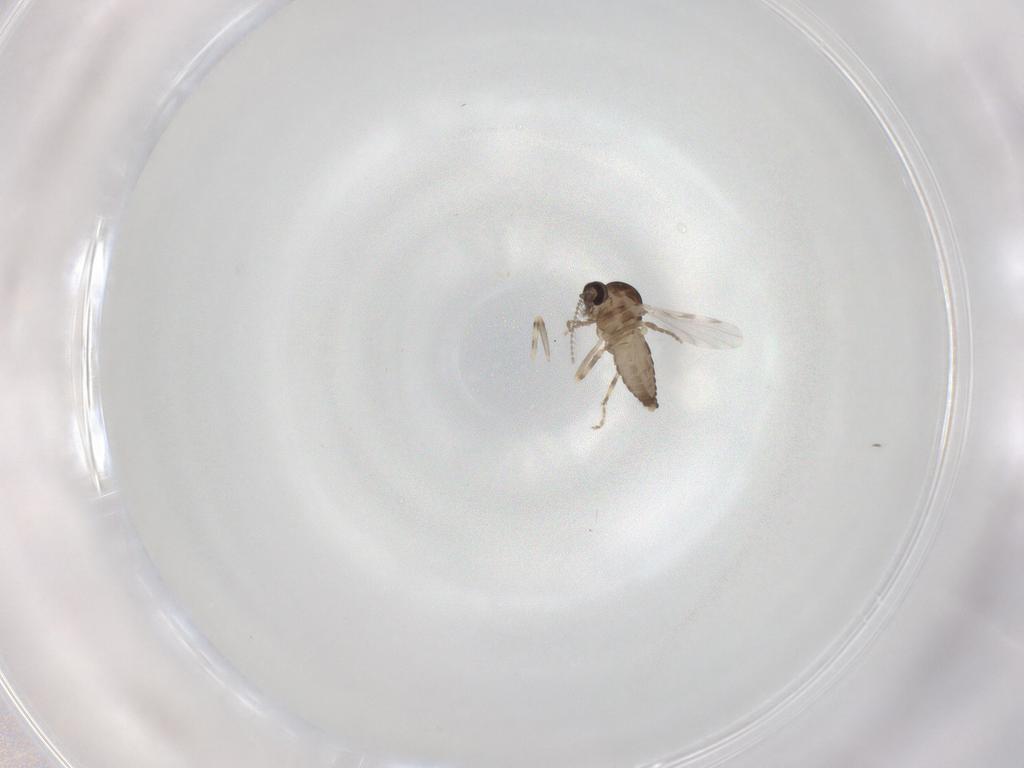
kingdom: Animalia
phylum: Arthropoda
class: Insecta
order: Diptera
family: Ceratopogonidae
